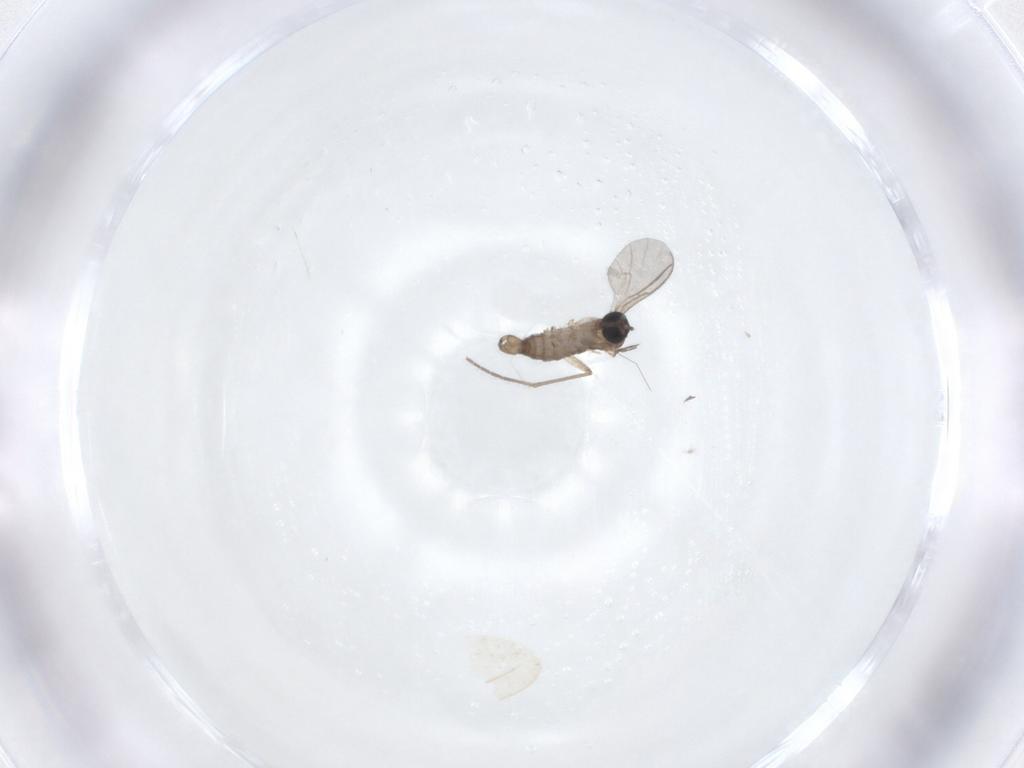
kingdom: Animalia
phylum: Arthropoda
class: Insecta
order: Diptera
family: Sciaridae
